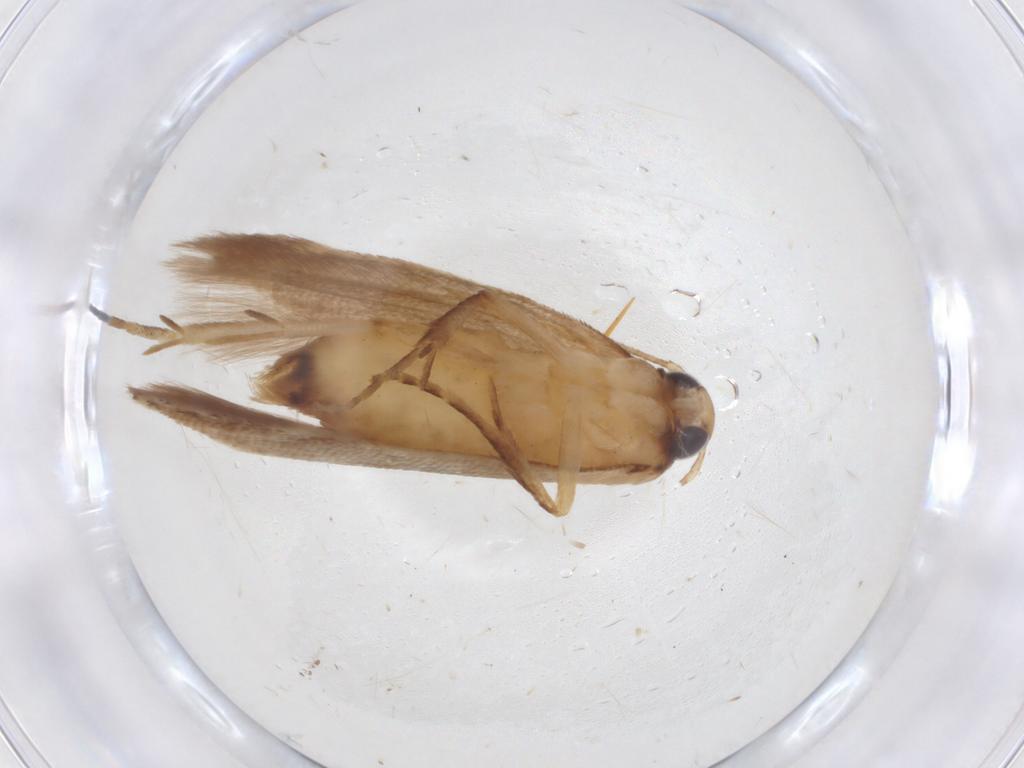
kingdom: Animalia
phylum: Arthropoda
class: Insecta
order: Lepidoptera
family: Gelechiidae
